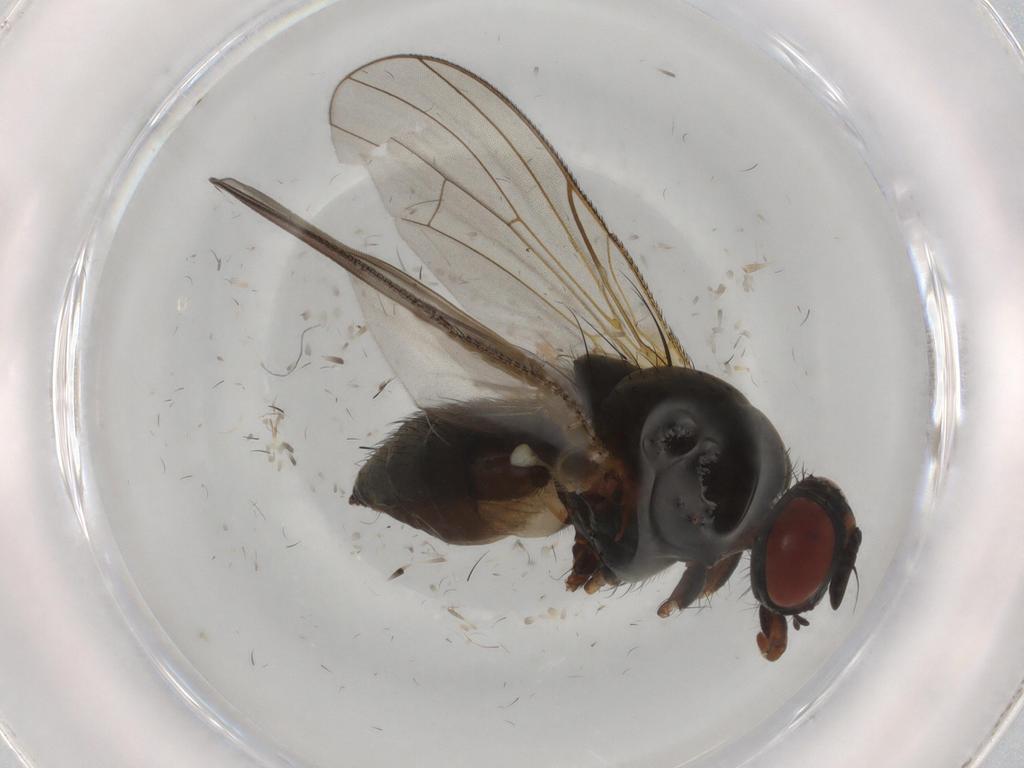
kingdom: Animalia
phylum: Arthropoda
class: Insecta
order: Diptera
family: Anthomyiidae
